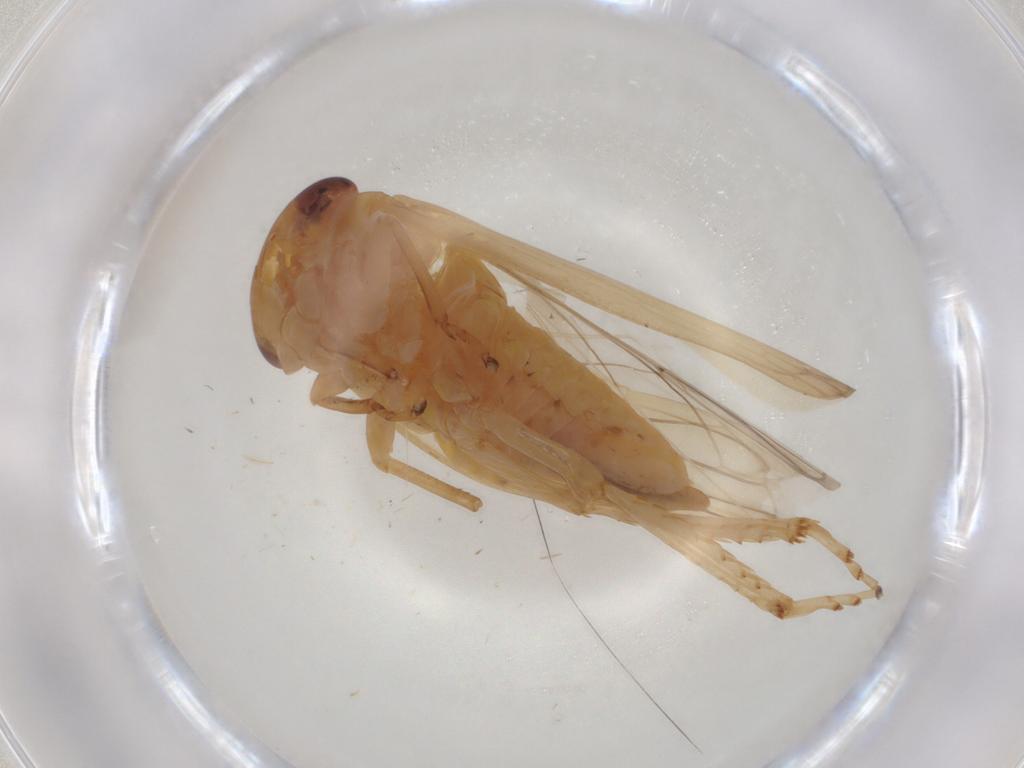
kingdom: Animalia
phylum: Arthropoda
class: Insecta
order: Hemiptera
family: Cicadellidae
